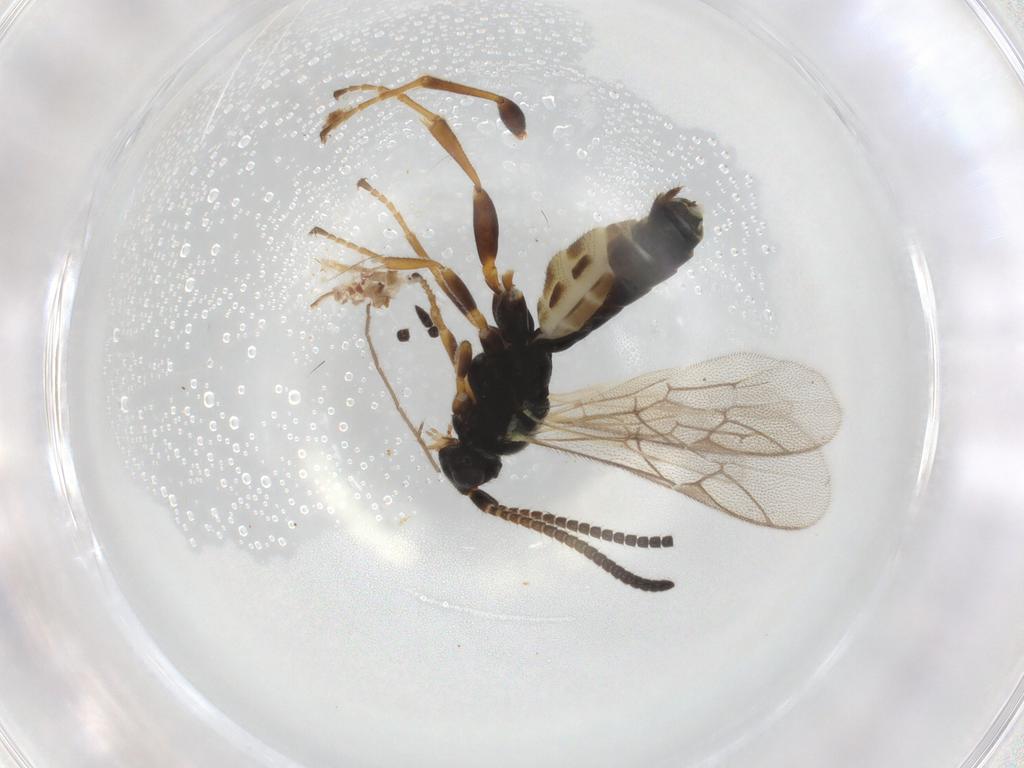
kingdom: Animalia
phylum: Arthropoda
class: Insecta
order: Hymenoptera
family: Ichneumonidae
